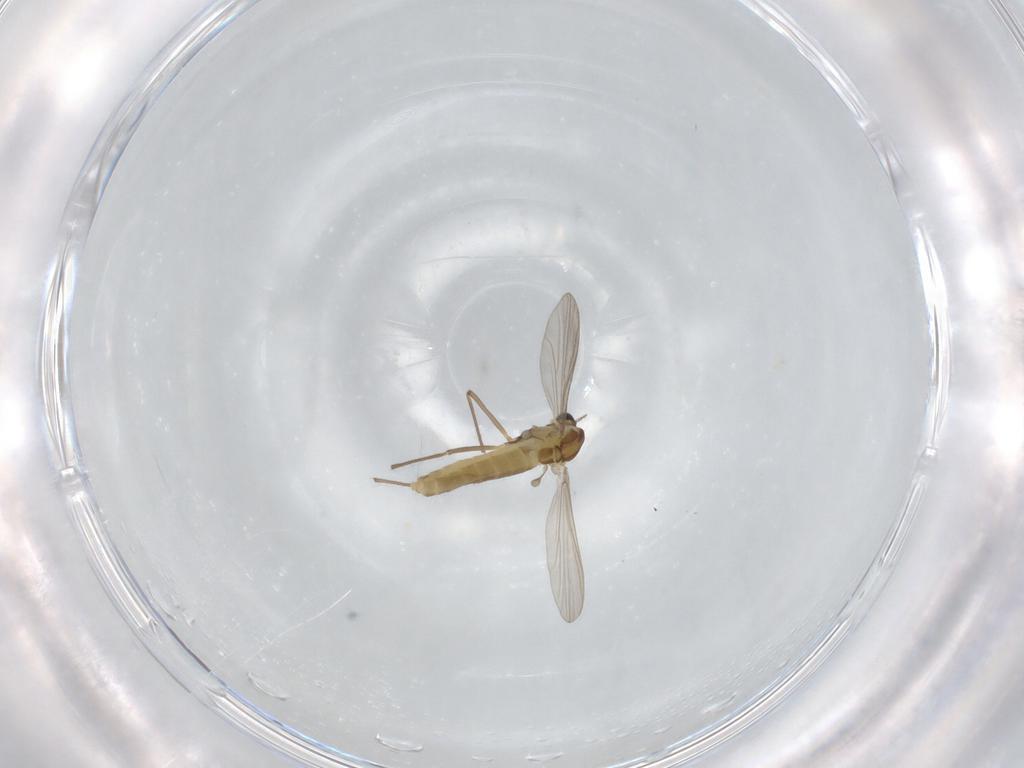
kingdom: Animalia
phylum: Arthropoda
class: Insecta
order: Diptera
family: Chironomidae
